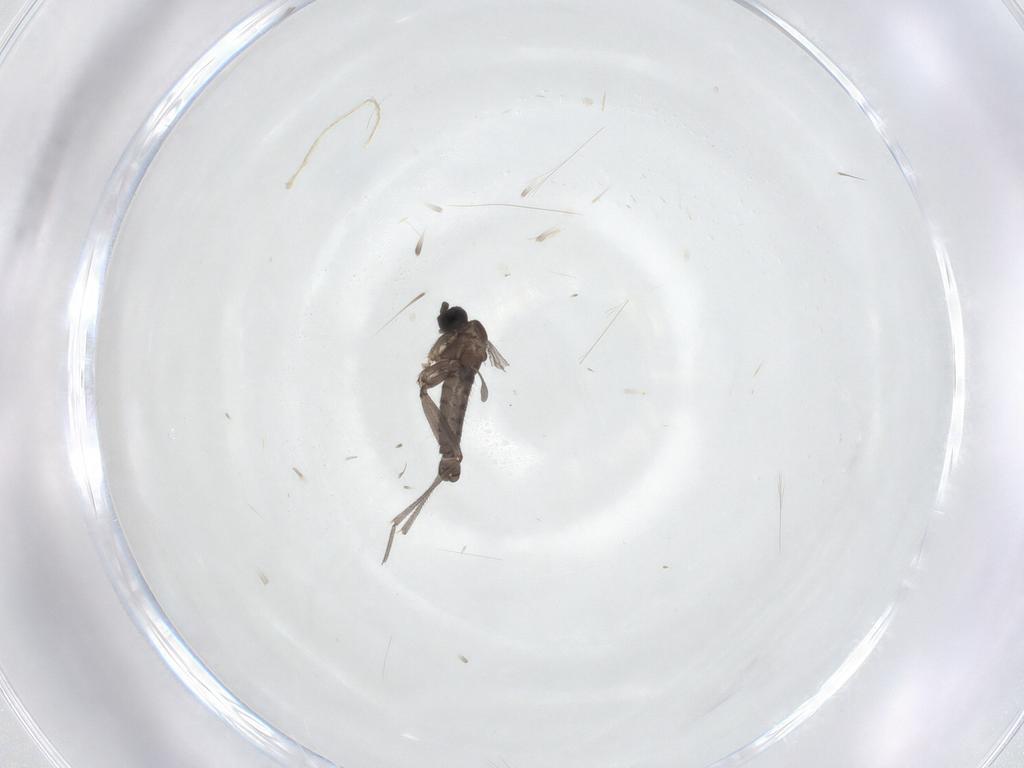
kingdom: Animalia
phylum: Arthropoda
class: Insecta
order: Diptera
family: Sciaridae
